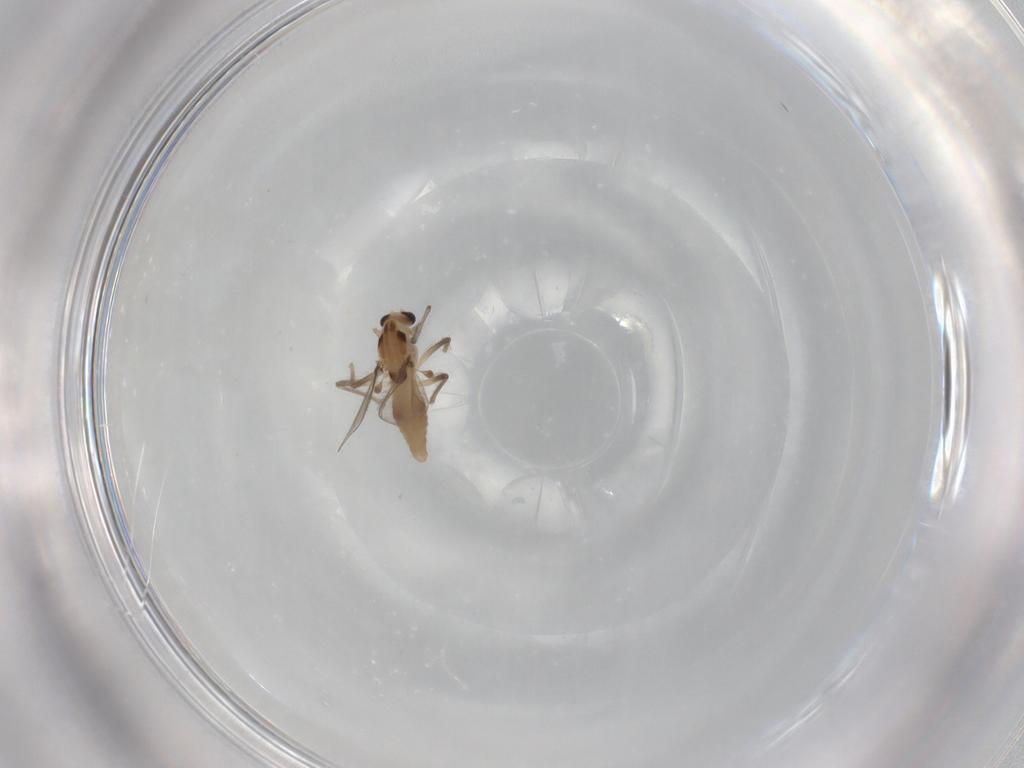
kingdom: Animalia
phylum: Arthropoda
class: Insecta
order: Diptera
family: Chironomidae
